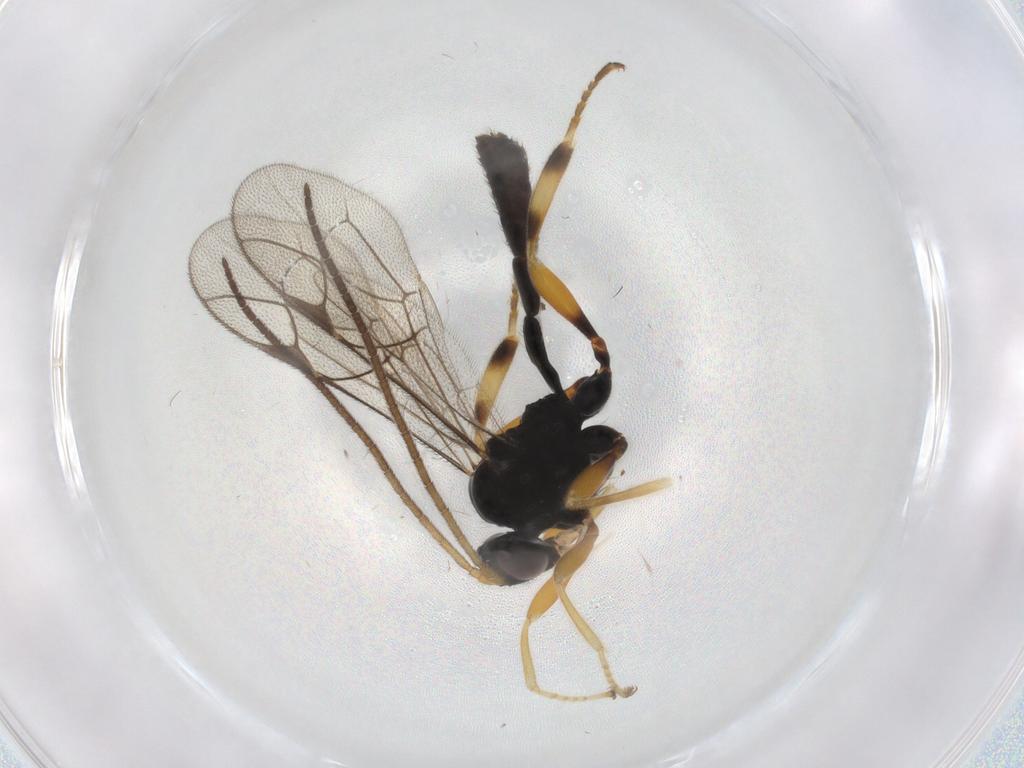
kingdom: Animalia
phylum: Arthropoda
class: Insecta
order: Hymenoptera
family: Ichneumonidae
